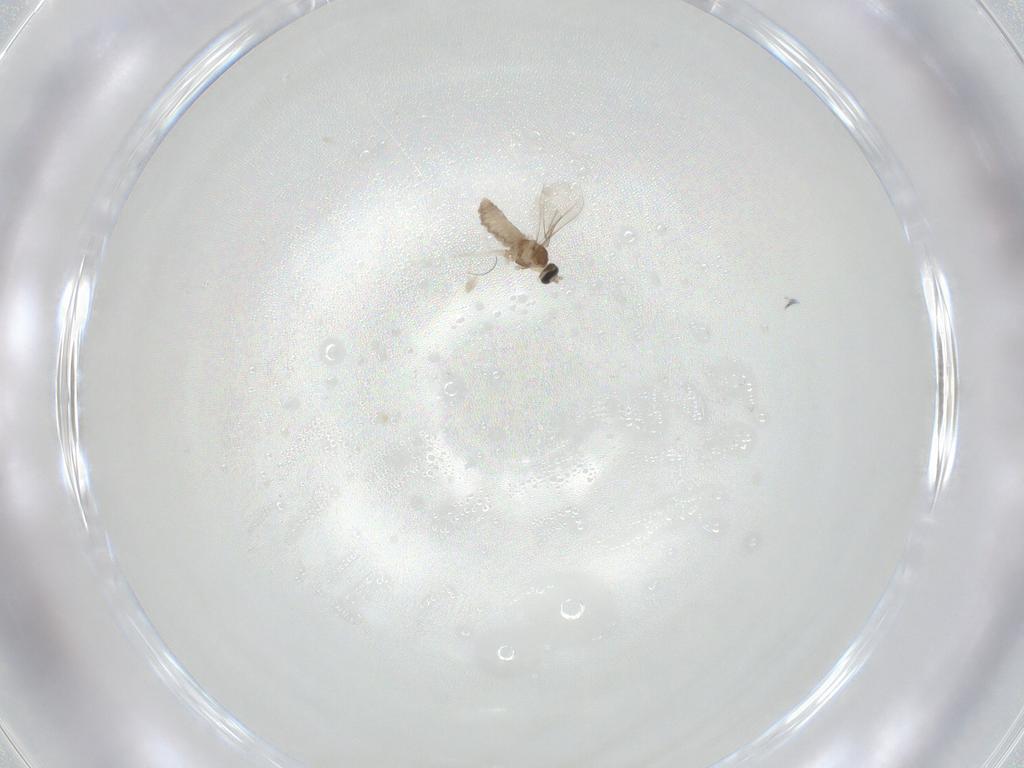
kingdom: Animalia
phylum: Arthropoda
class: Insecta
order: Diptera
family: Cecidomyiidae
